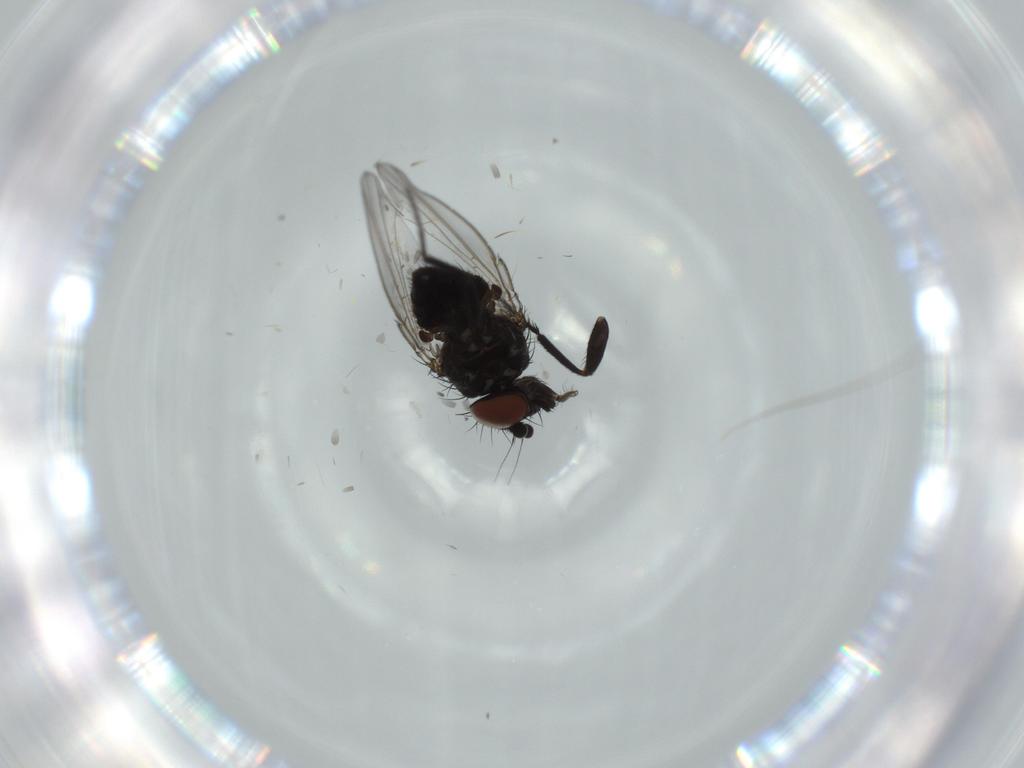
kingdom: Animalia
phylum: Arthropoda
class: Insecta
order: Diptera
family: Milichiidae
